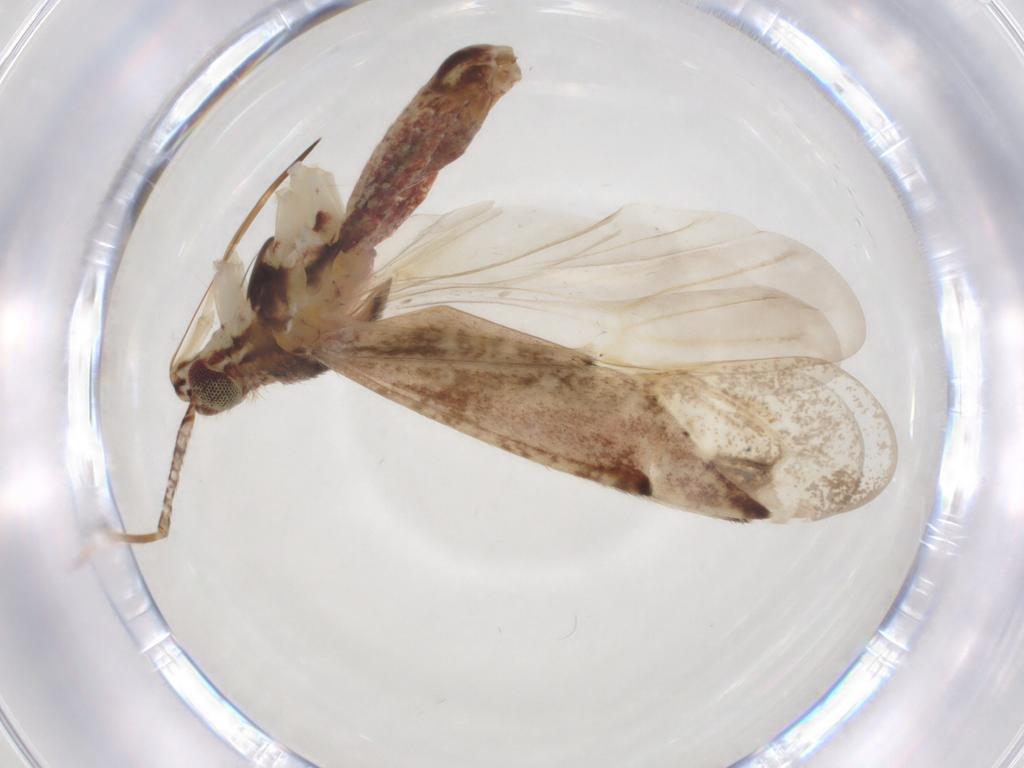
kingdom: Animalia
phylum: Arthropoda
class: Insecta
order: Hemiptera
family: Miridae
